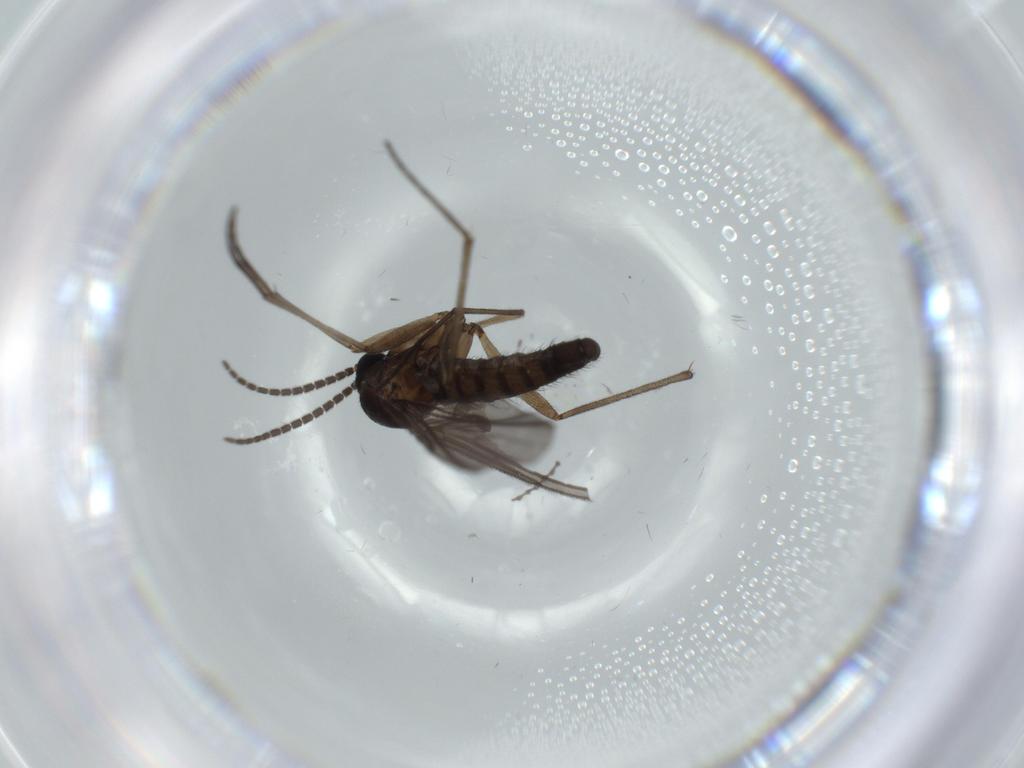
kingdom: Animalia
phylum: Arthropoda
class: Insecta
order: Diptera
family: Sciaridae
